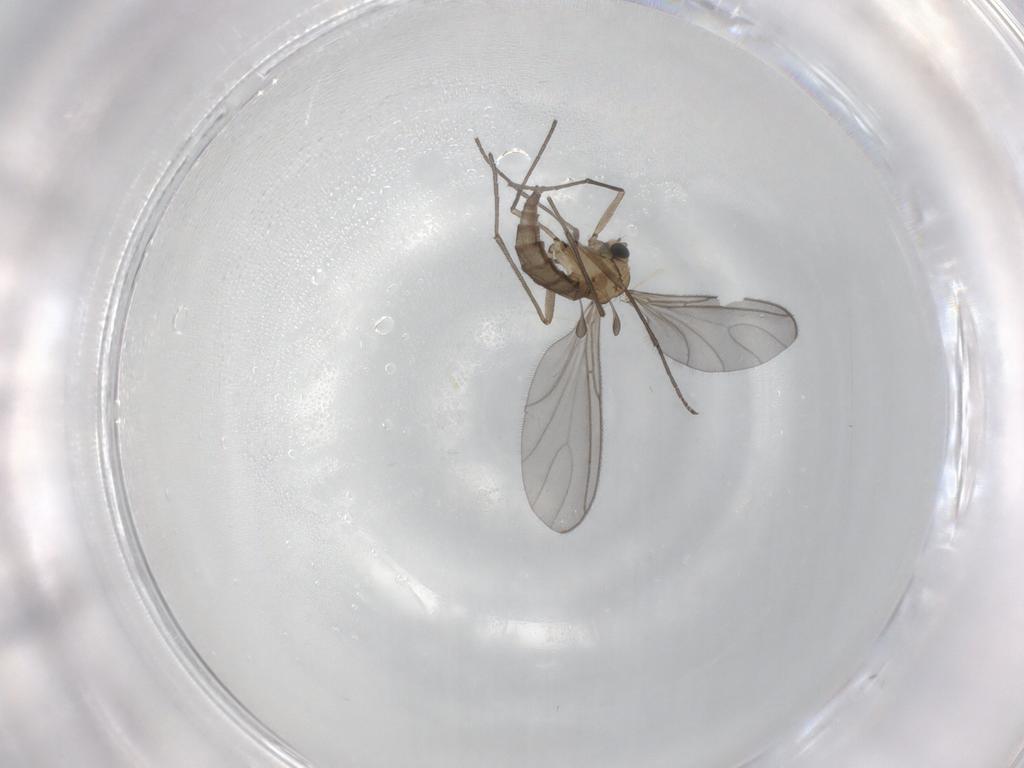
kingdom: Animalia
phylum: Arthropoda
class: Insecta
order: Diptera
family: Sciaridae
